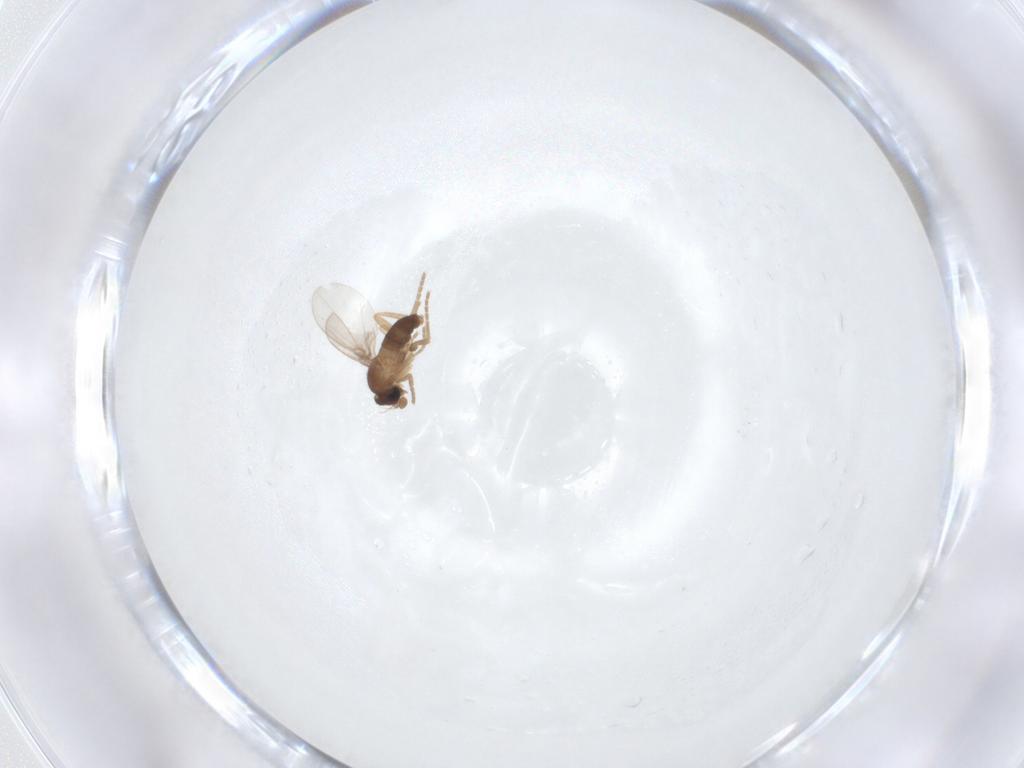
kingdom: Animalia
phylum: Arthropoda
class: Insecta
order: Diptera
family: Phoridae
